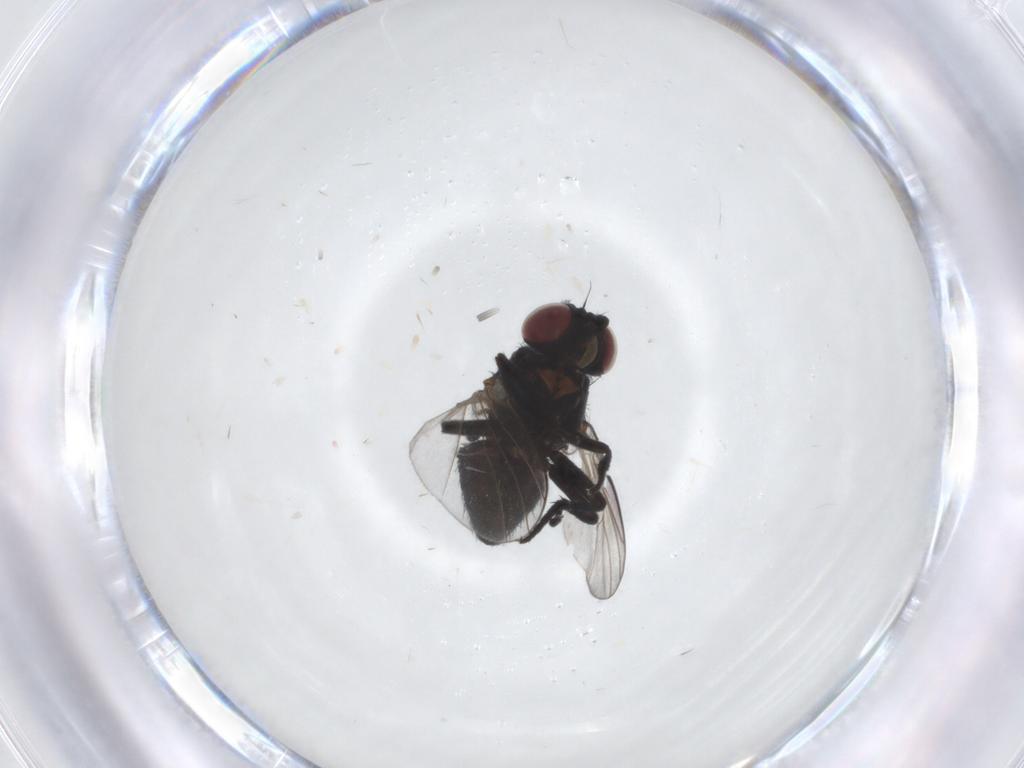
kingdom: Animalia
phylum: Arthropoda
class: Insecta
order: Diptera
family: Agromyzidae
